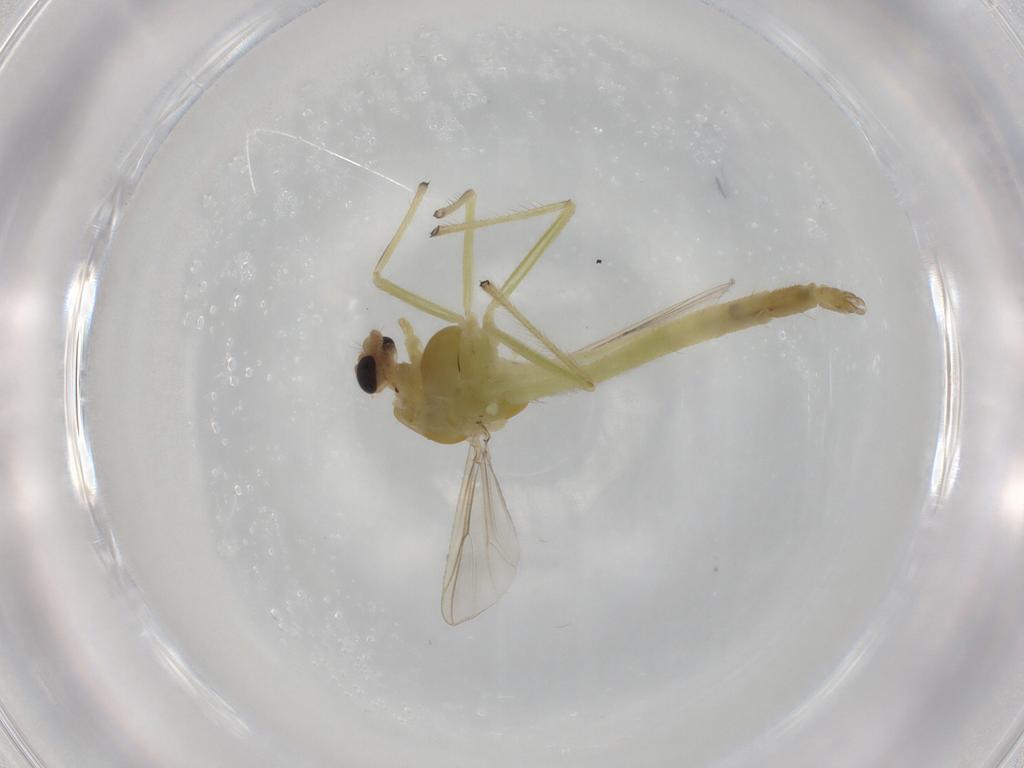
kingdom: Animalia
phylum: Arthropoda
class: Insecta
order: Diptera
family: Chironomidae
